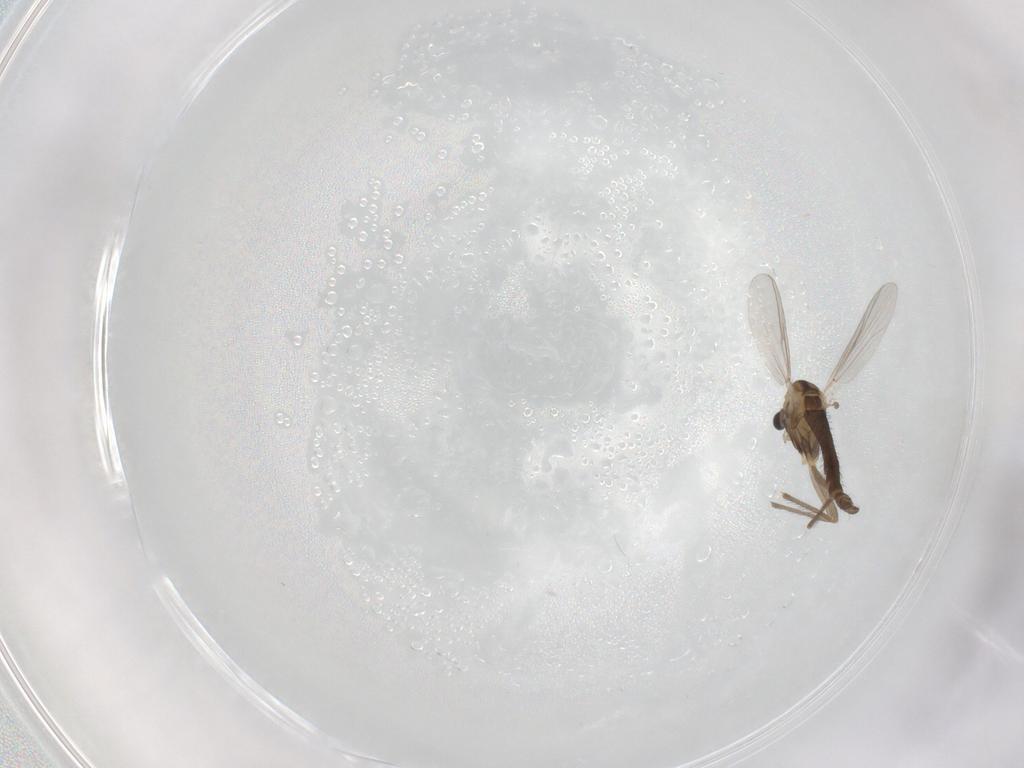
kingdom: Animalia
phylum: Arthropoda
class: Insecta
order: Diptera
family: Chironomidae
